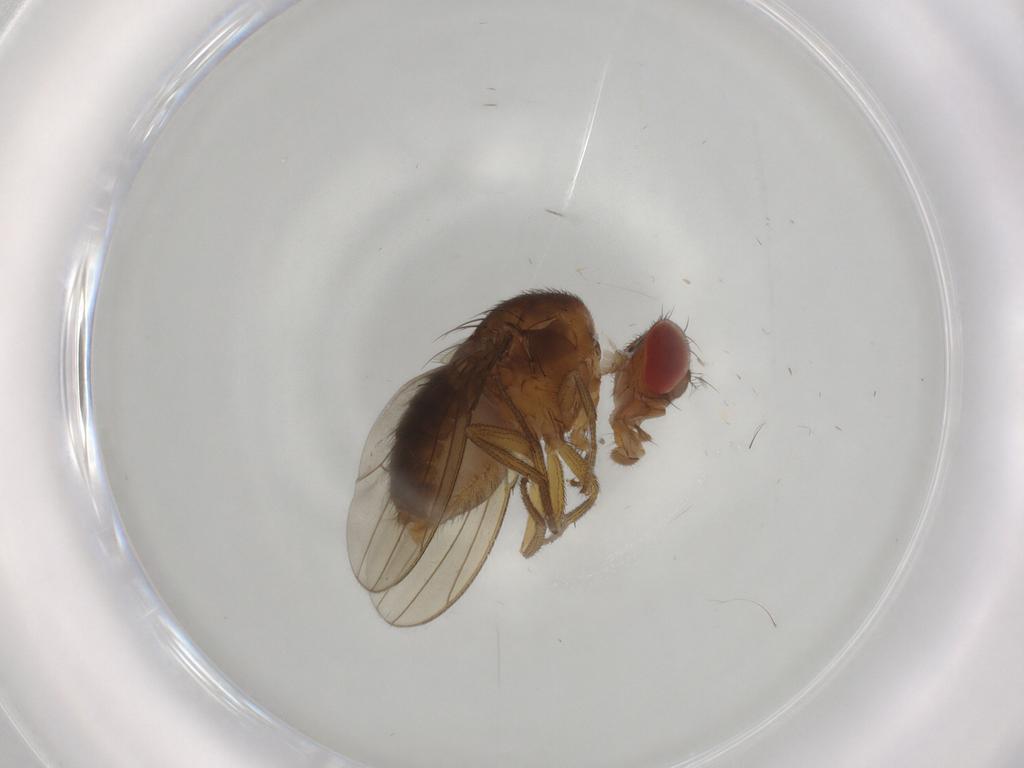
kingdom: Animalia
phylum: Arthropoda
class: Insecta
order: Diptera
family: Drosophilidae
